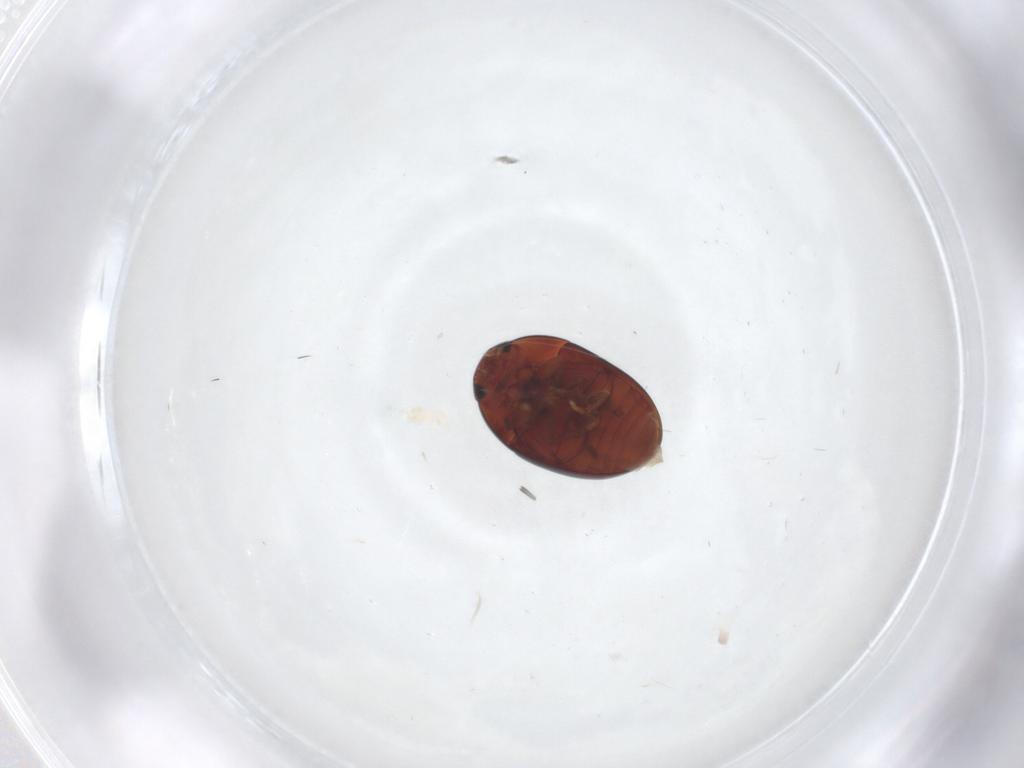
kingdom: Animalia
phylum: Arthropoda
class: Insecta
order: Coleoptera
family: Phalacridae
